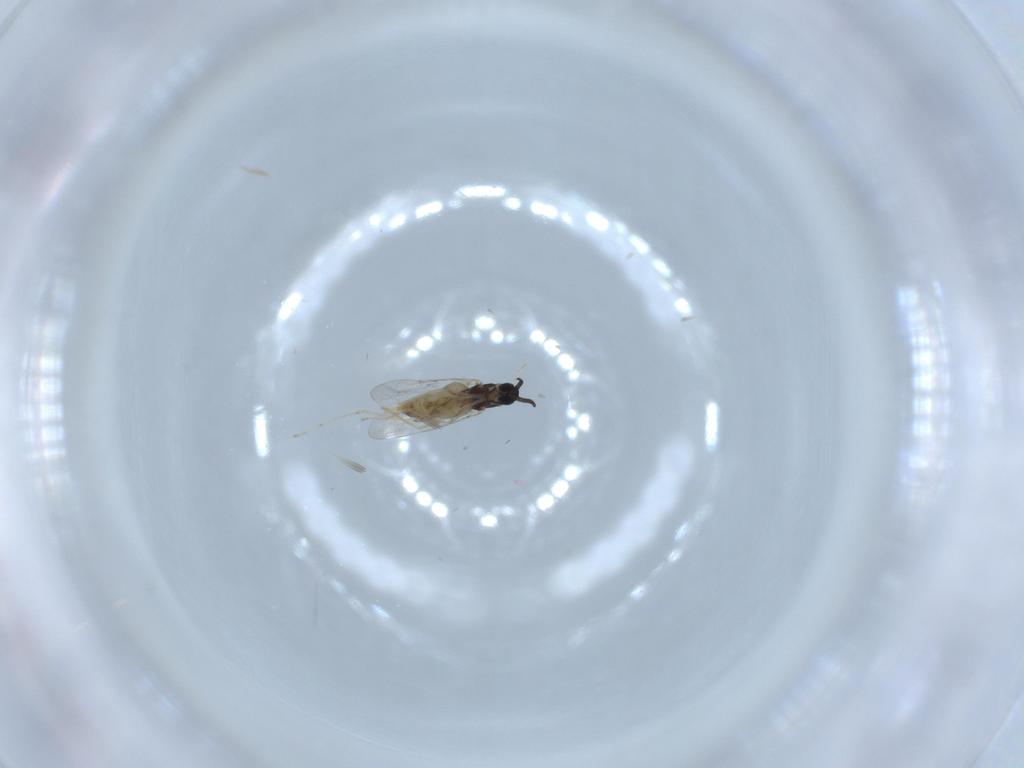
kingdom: Animalia
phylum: Arthropoda
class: Insecta
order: Diptera
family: Cecidomyiidae
